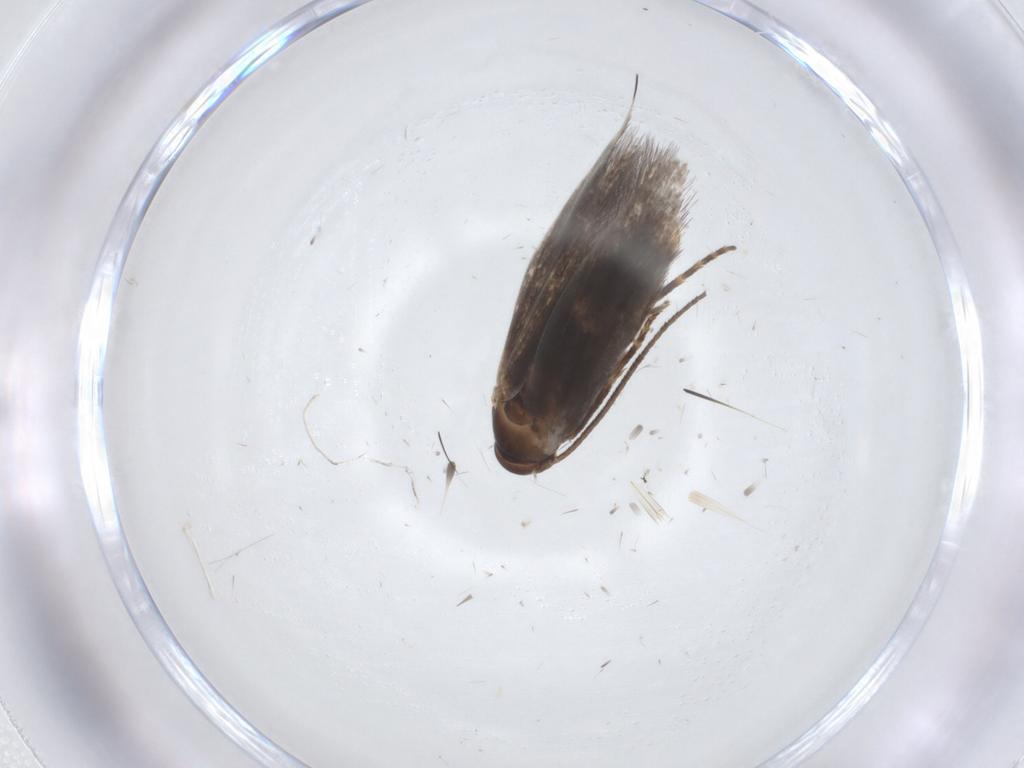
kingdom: Animalia
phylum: Arthropoda
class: Insecta
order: Lepidoptera
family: Elachistidae
